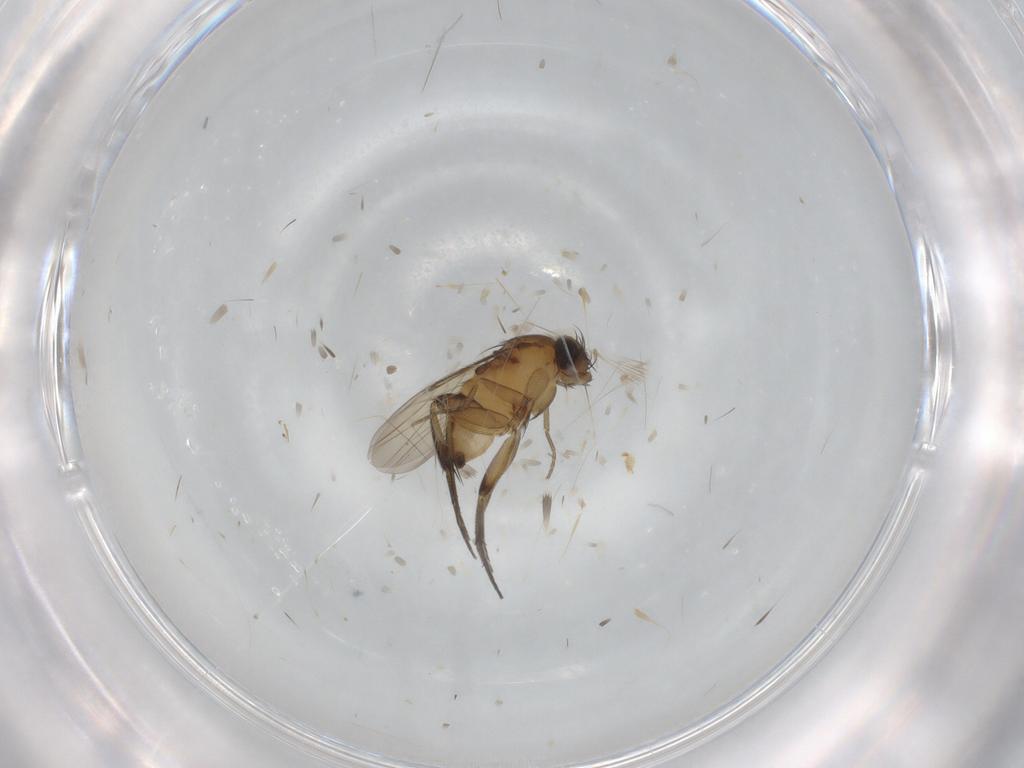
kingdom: Animalia
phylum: Arthropoda
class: Insecta
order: Diptera
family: Phoridae
